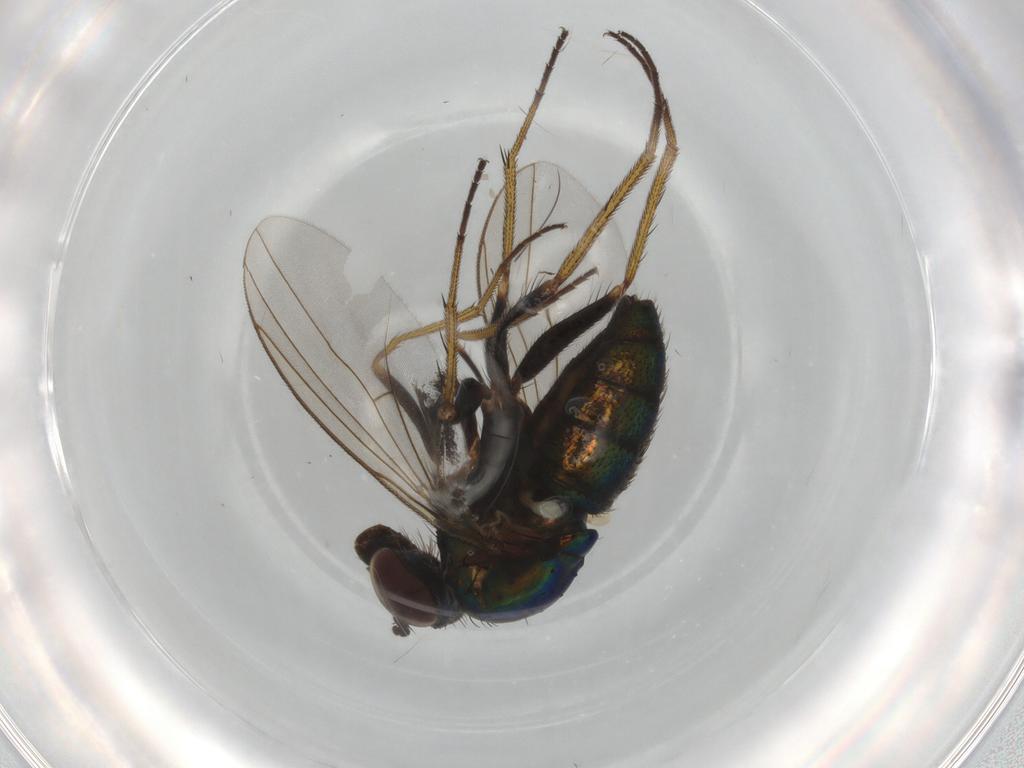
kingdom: Animalia
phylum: Arthropoda
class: Insecta
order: Diptera
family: Dolichopodidae
